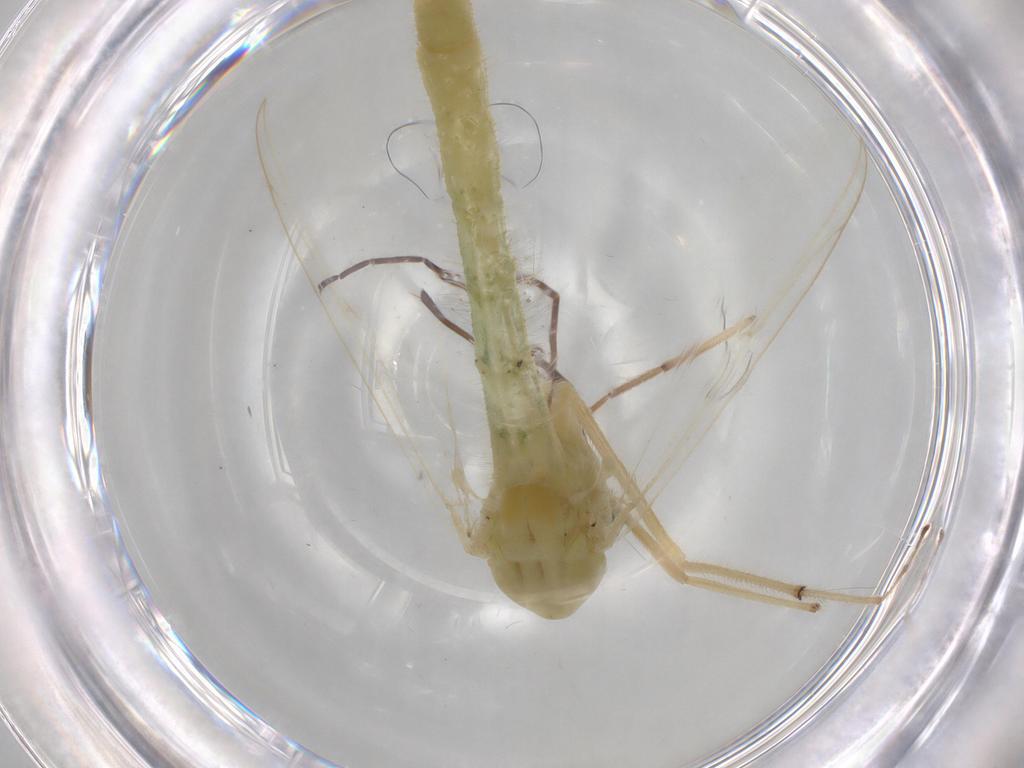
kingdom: Animalia
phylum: Arthropoda
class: Insecta
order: Diptera
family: Chironomidae
